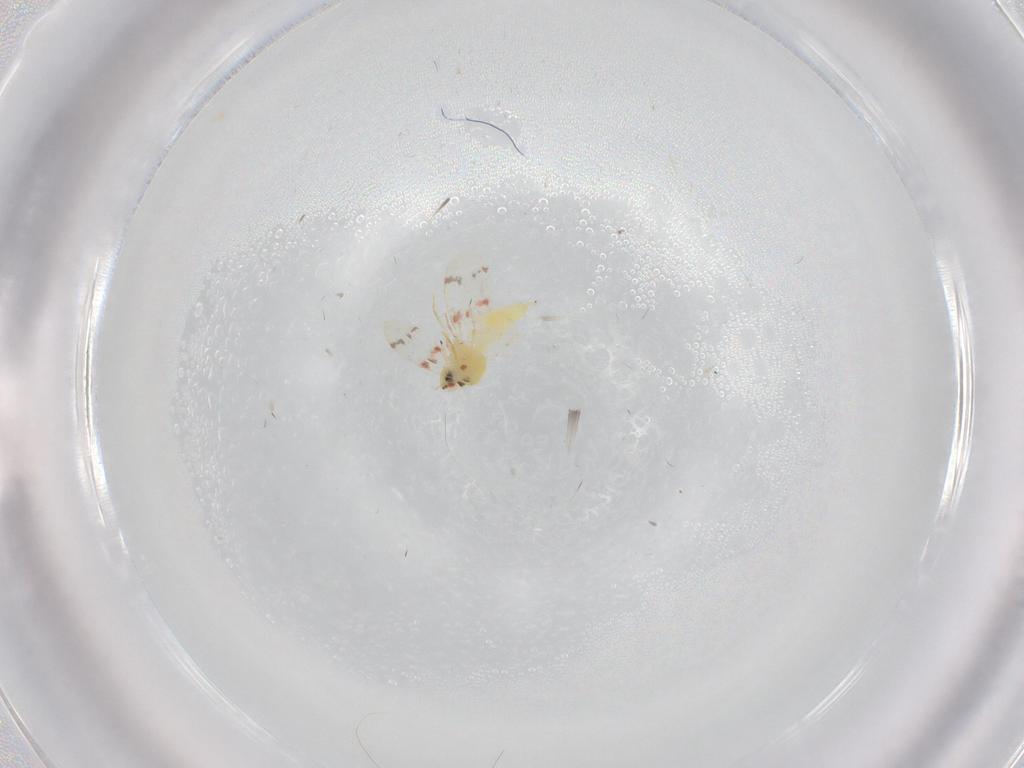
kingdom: Animalia
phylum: Arthropoda
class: Insecta
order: Hemiptera
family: Aleyrodidae
